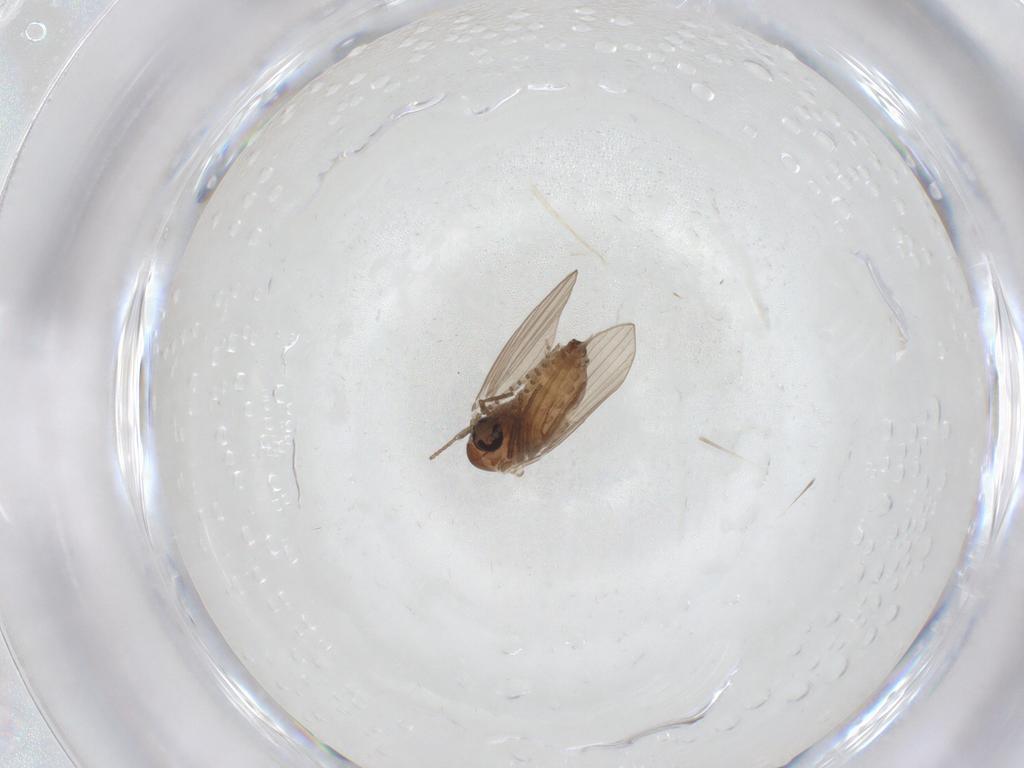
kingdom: Animalia
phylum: Arthropoda
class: Insecta
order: Diptera
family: Psychodidae
